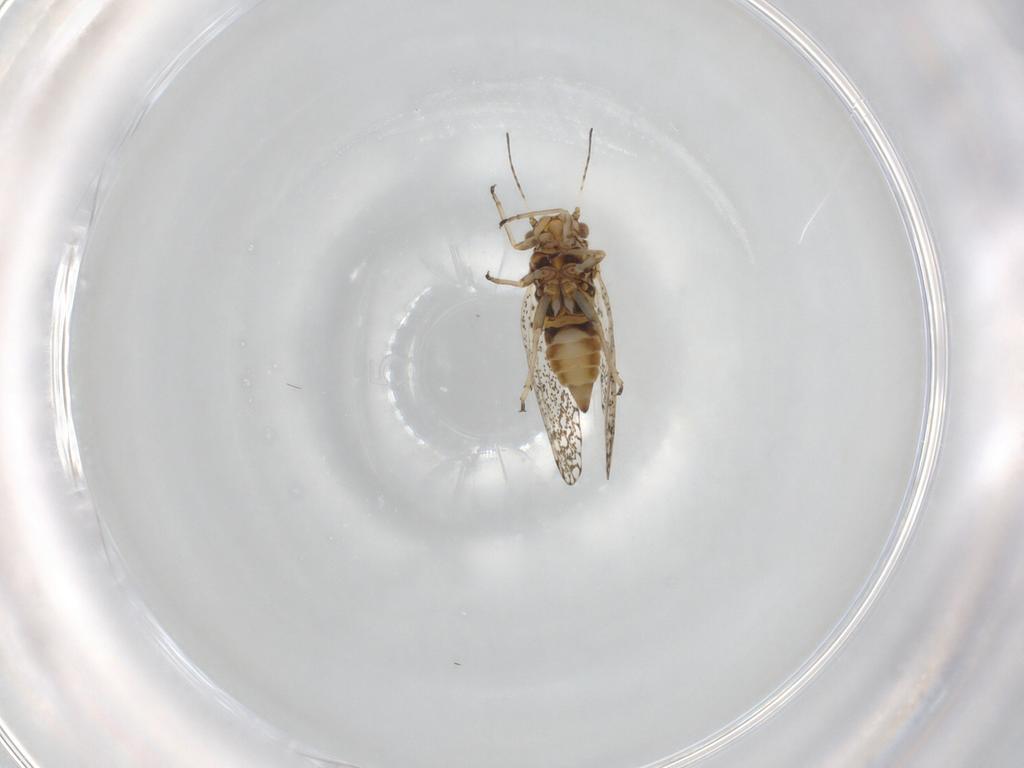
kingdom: Animalia
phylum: Arthropoda
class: Insecta
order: Hemiptera
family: Psyllidae
